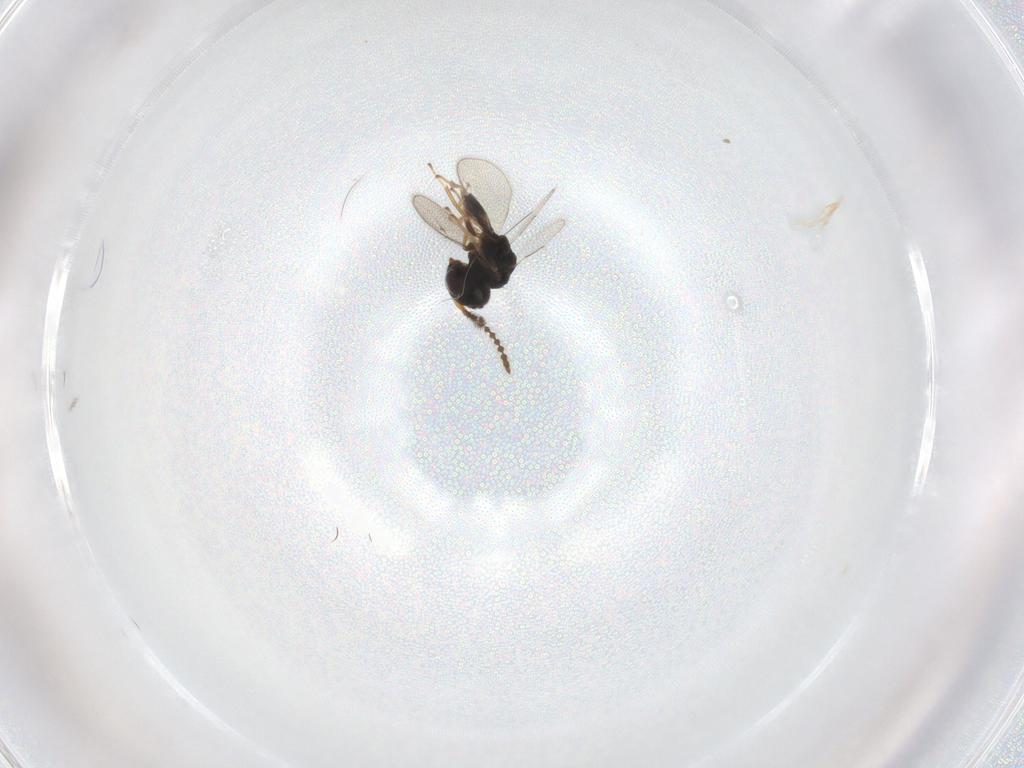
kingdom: Animalia
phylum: Arthropoda
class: Insecta
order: Hymenoptera
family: Pteromalidae
